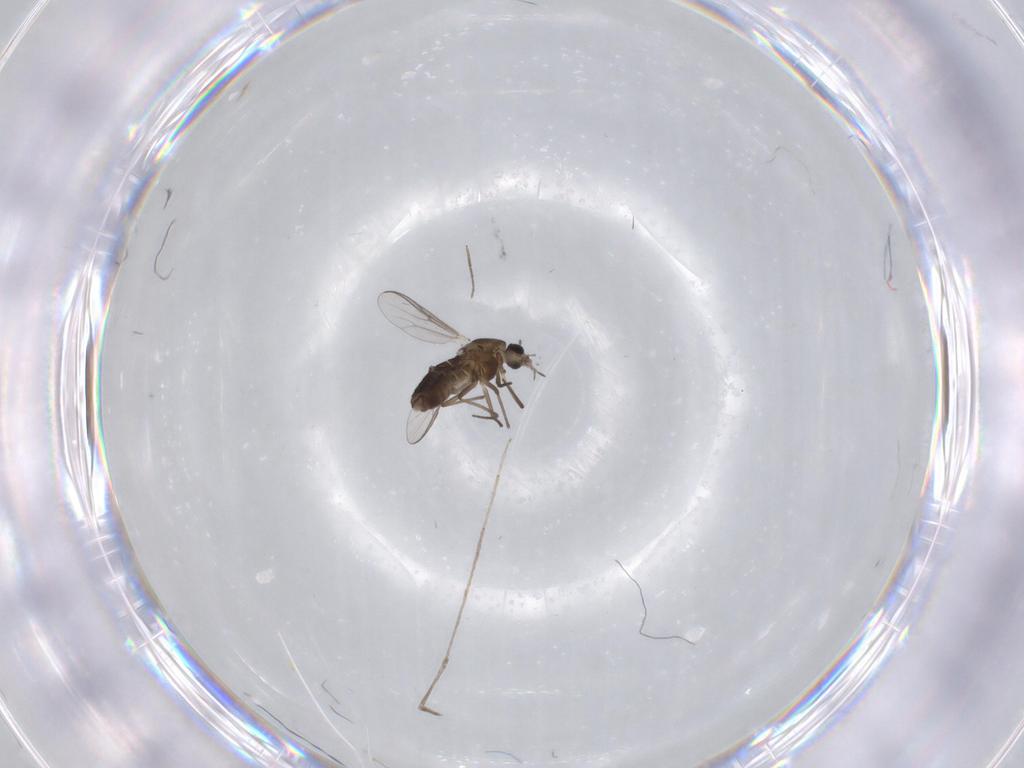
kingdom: Animalia
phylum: Arthropoda
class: Insecta
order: Diptera
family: Chironomidae
